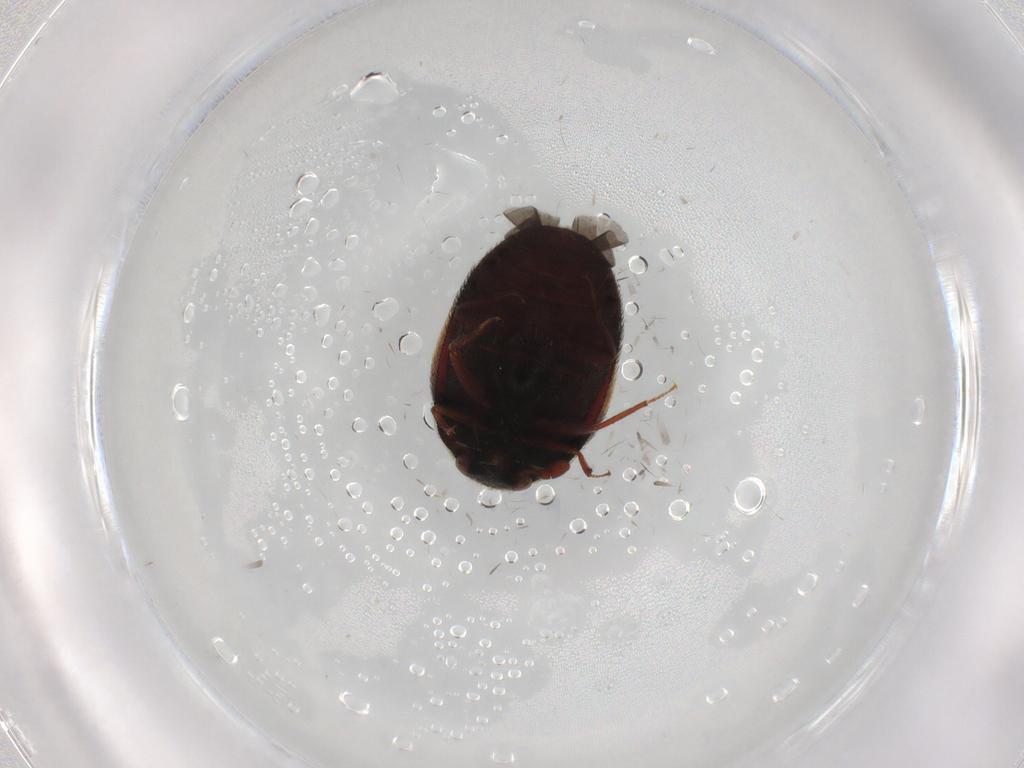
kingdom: Animalia
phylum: Arthropoda
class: Insecta
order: Coleoptera
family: Dermestidae
